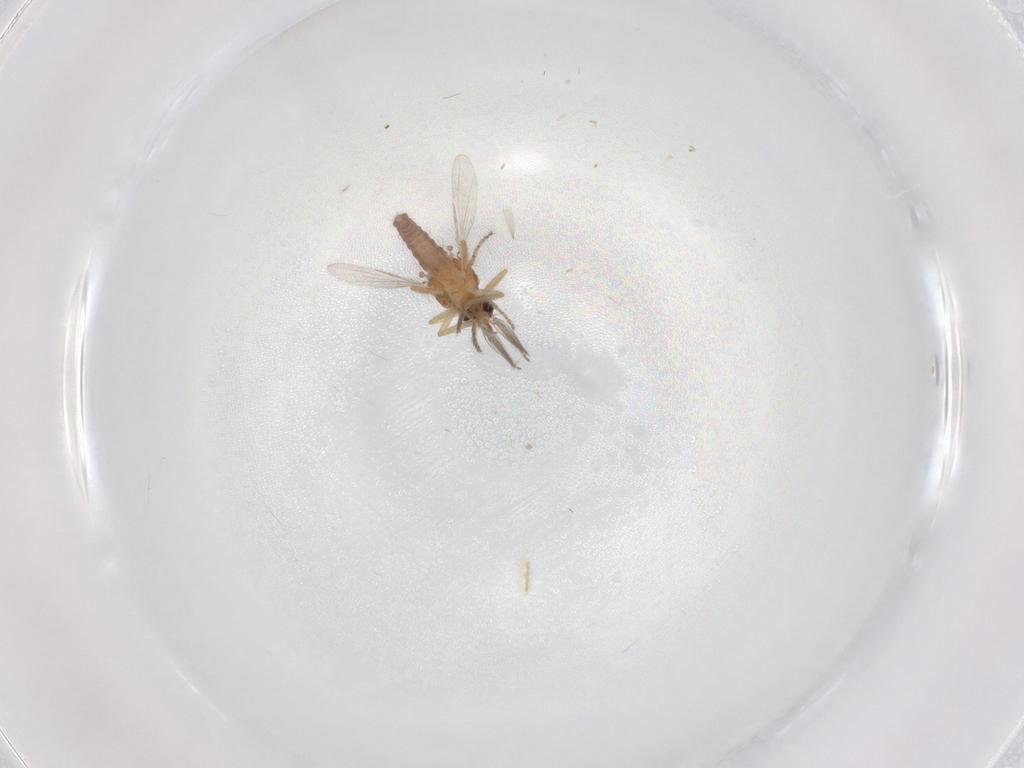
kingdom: Animalia
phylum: Arthropoda
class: Insecta
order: Diptera
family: Ceratopogonidae
